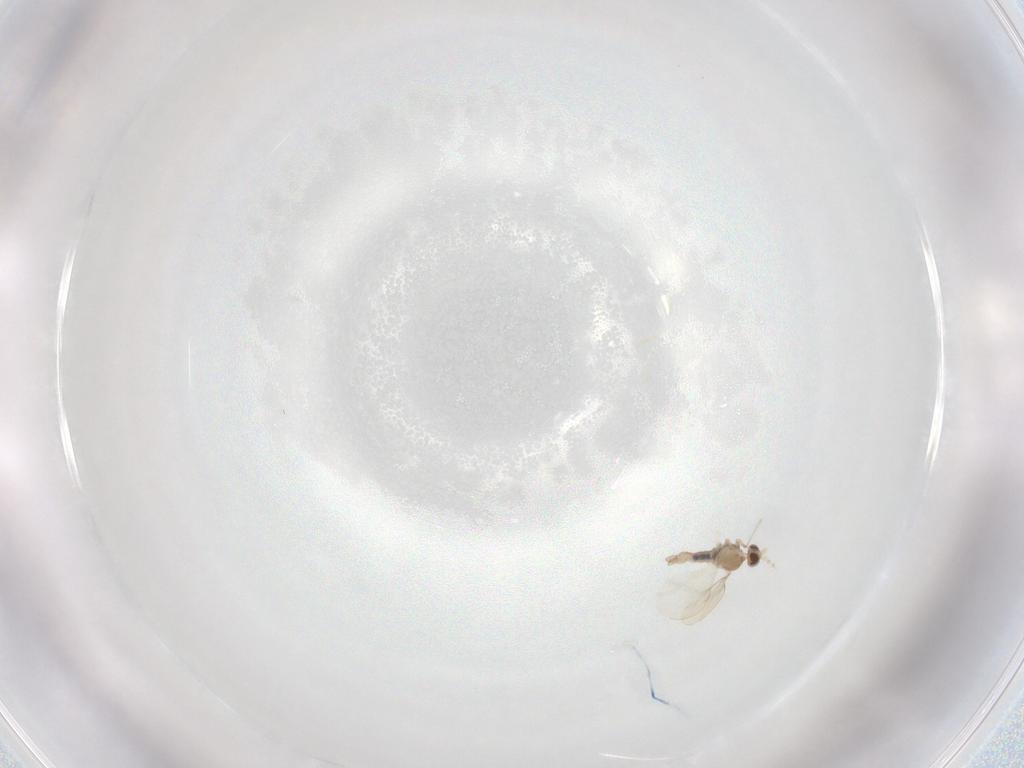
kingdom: Animalia
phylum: Arthropoda
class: Insecta
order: Diptera
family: Cecidomyiidae
